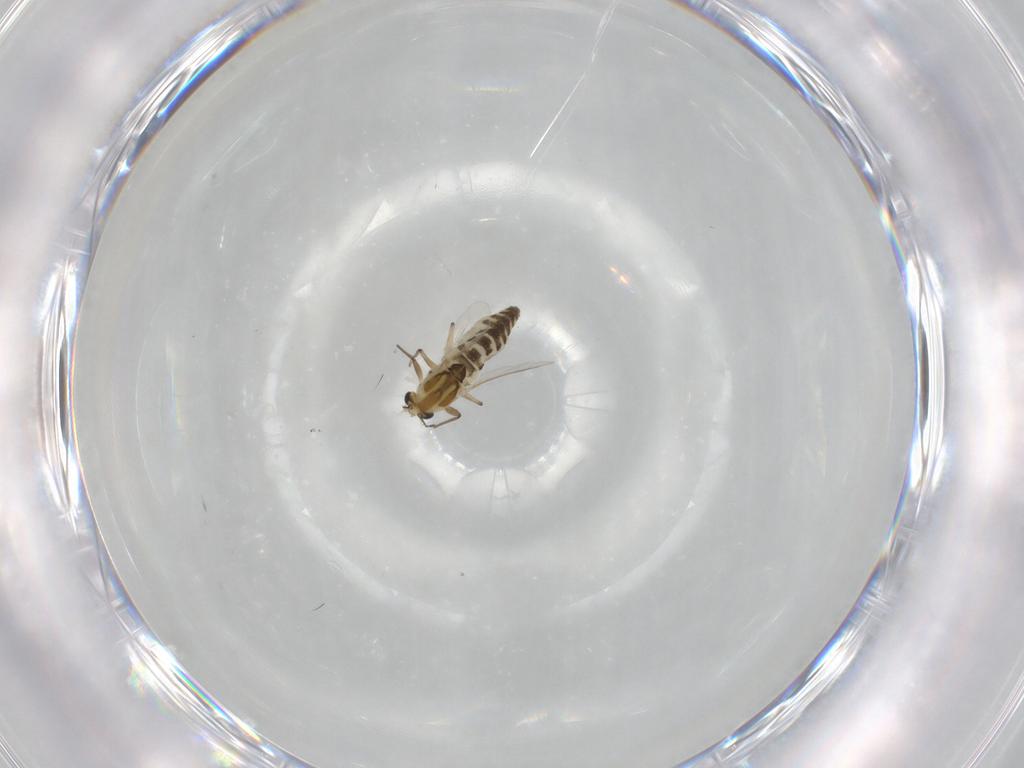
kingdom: Animalia
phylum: Arthropoda
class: Insecta
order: Diptera
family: Chironomidae
